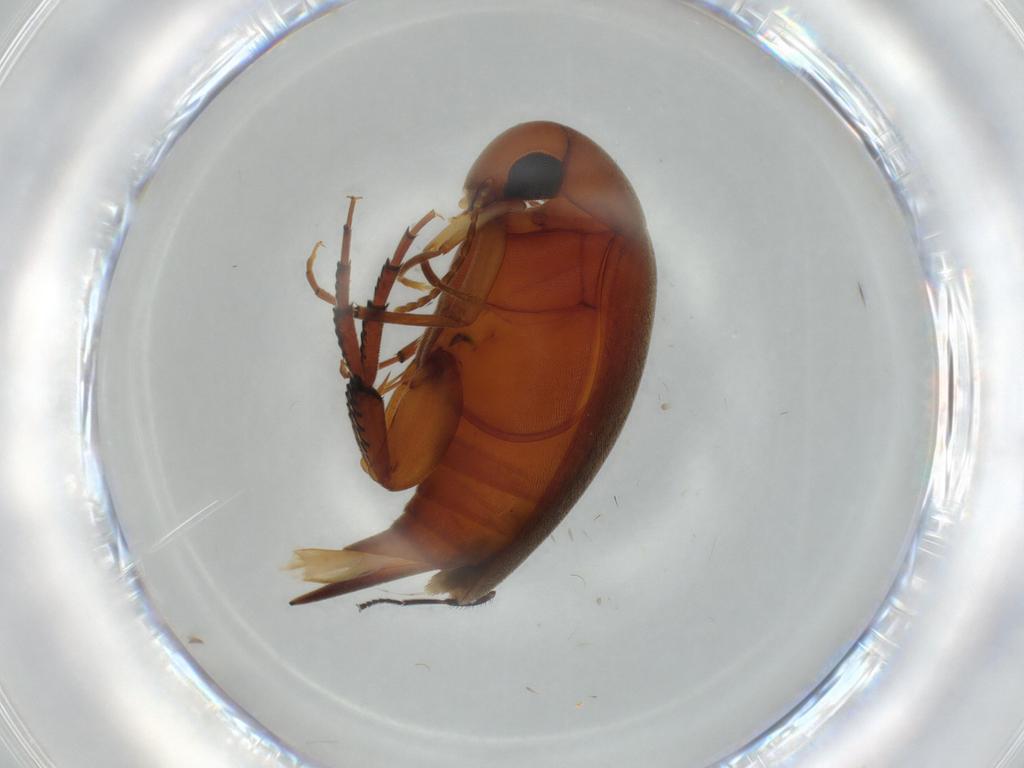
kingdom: Animalia
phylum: Arthropoda
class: Insecta
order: Coleoptera
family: Mordellidae
